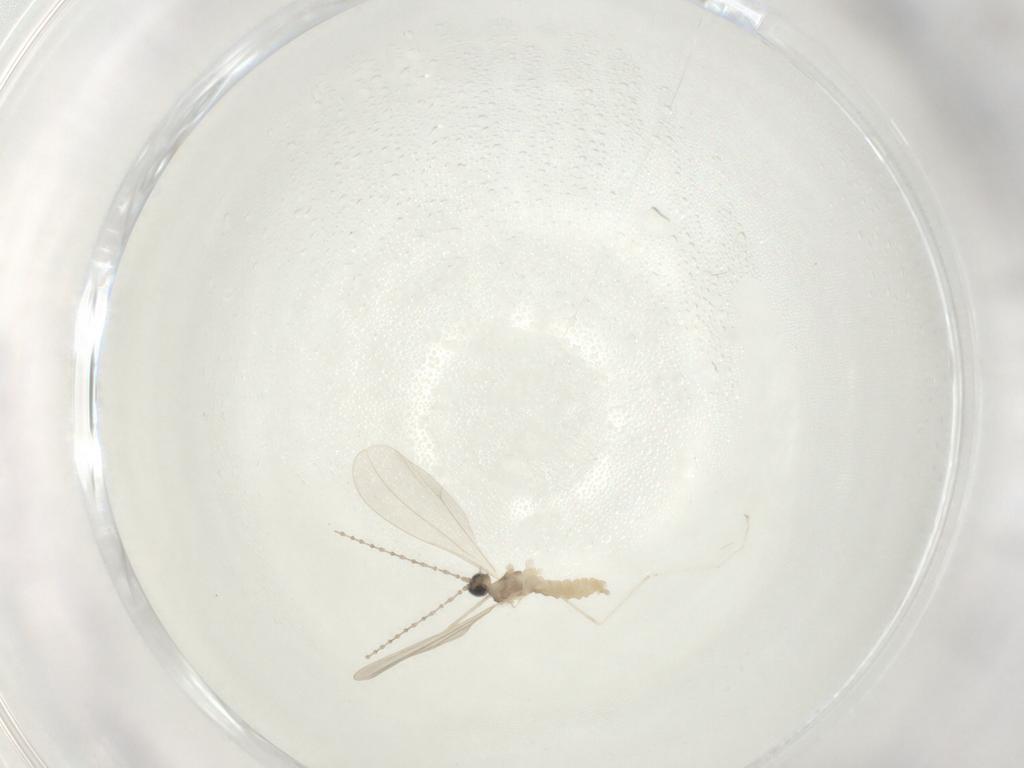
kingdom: Animalia
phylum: Arthropoda
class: Insecta
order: Diptera
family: Cecidomyiidae
